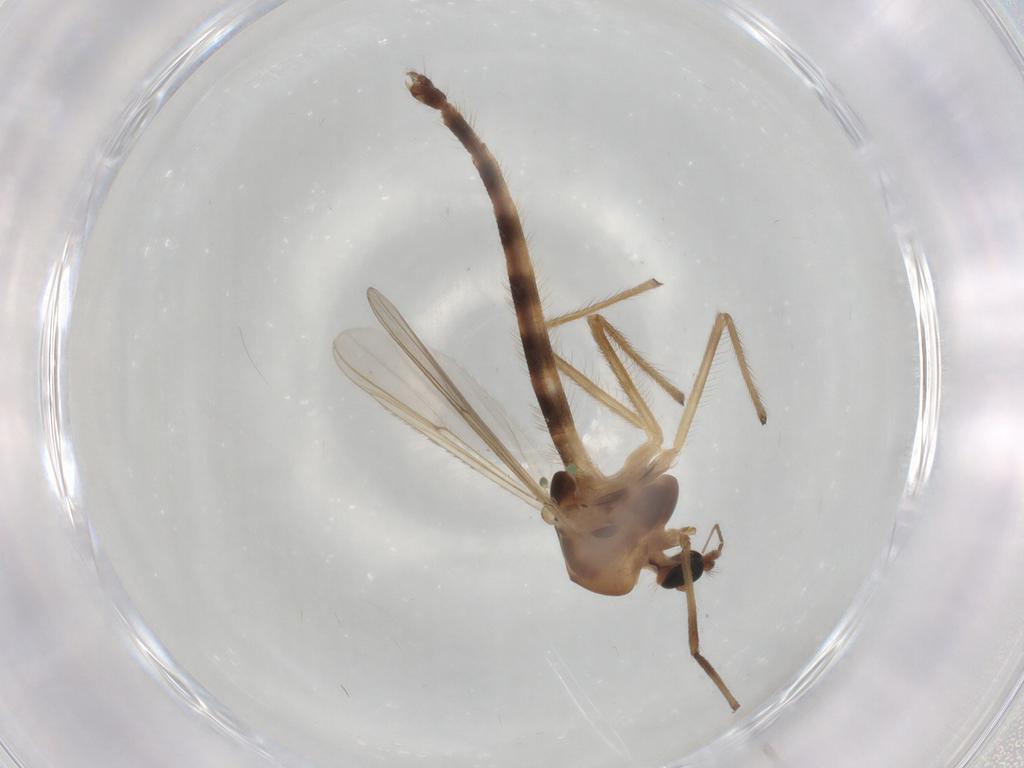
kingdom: Animalia
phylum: Arthropoda
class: Insecta
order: Diptera
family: Chironomidae
